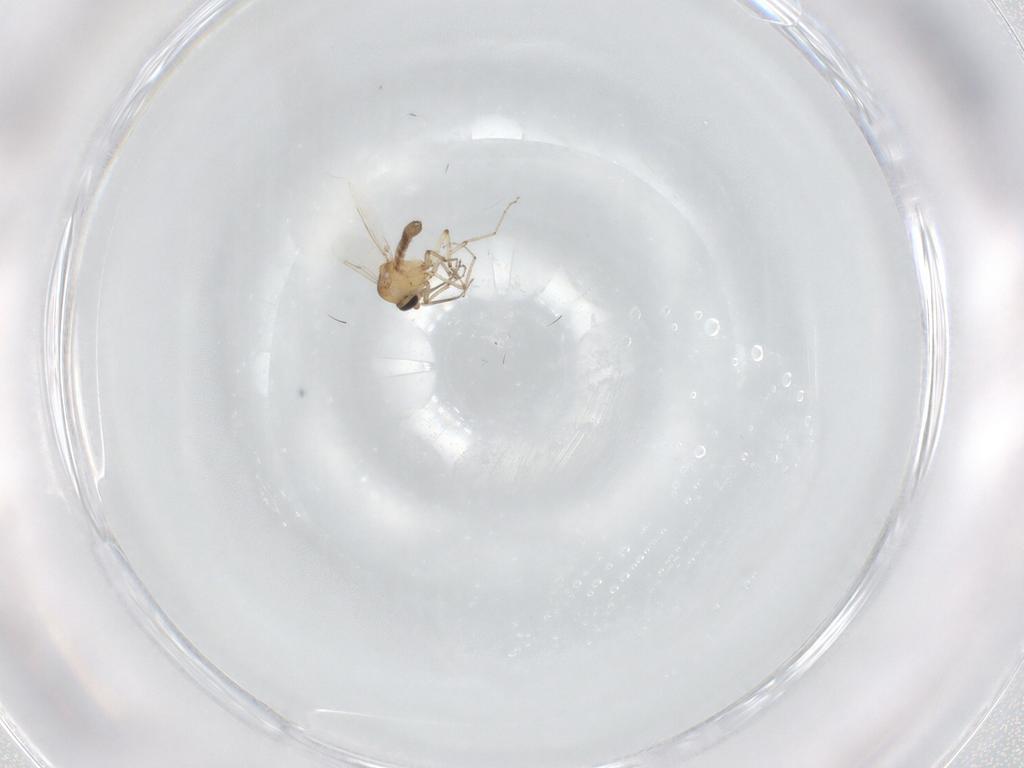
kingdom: Animalia
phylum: Arthropoda
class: Insecta
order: Diptera
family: Ceratopogonidae
